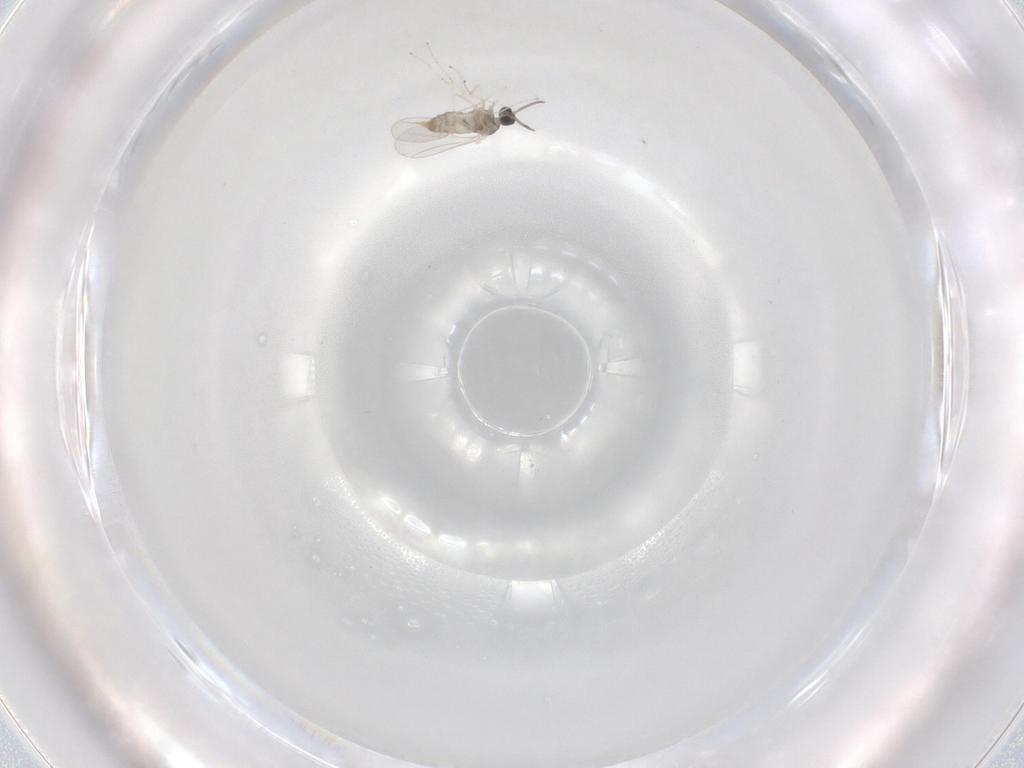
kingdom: Animalia
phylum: Arthropoda
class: Insecta
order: Diptera
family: Cecidomyiidae
